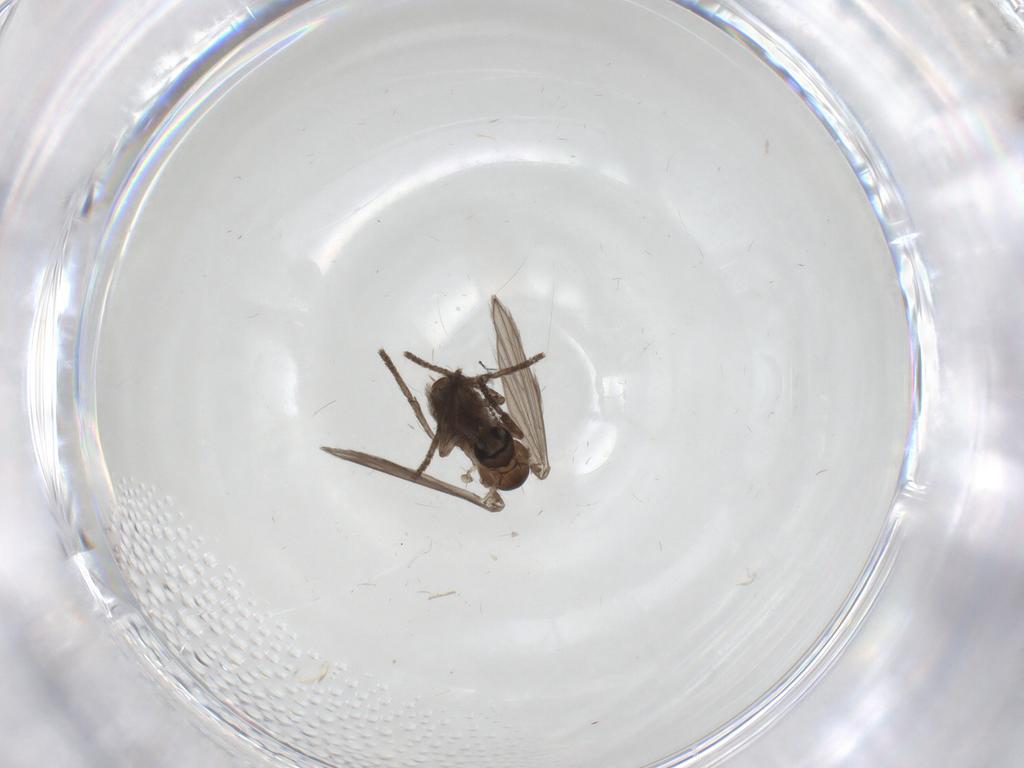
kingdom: Animalia
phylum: Arthropoda
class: Insecta
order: Diptera
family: Psychodidae
